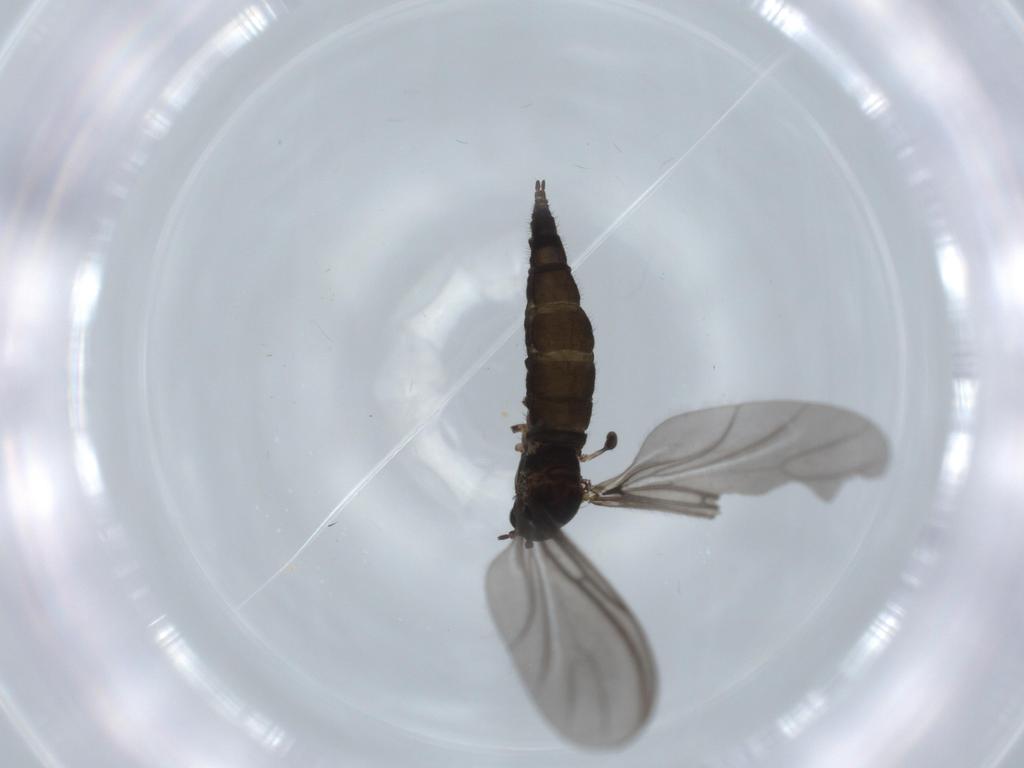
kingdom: Animalia
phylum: Arthropoda
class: Insecta
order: Diptera
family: Sciaridae
